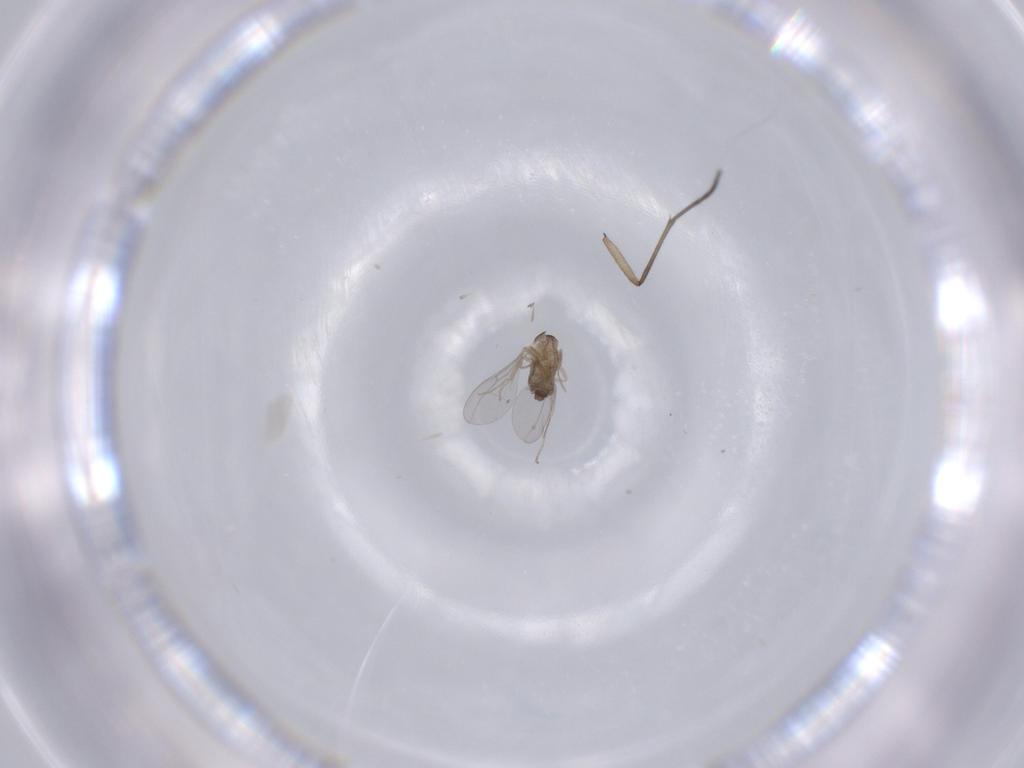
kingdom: Animalia
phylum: Arthropoda
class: Insecta
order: Diptera
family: Cecidomyiidae
